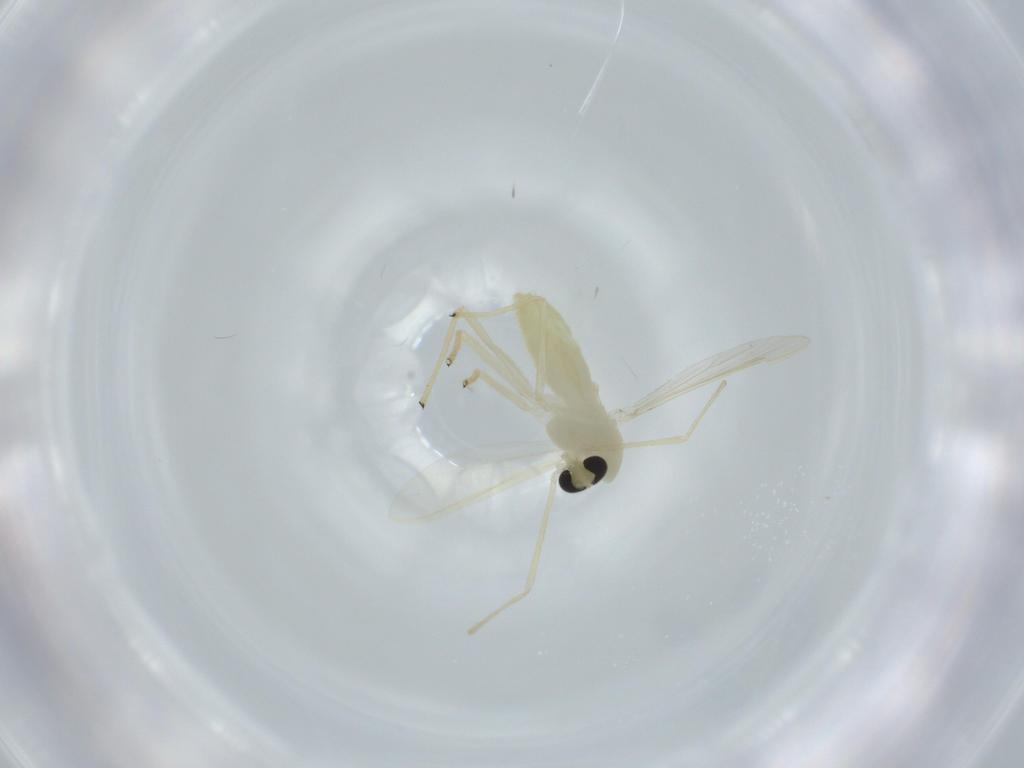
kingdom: Animalia
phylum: Arthropoda
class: Insecta
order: Diptera
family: Chironomidae
